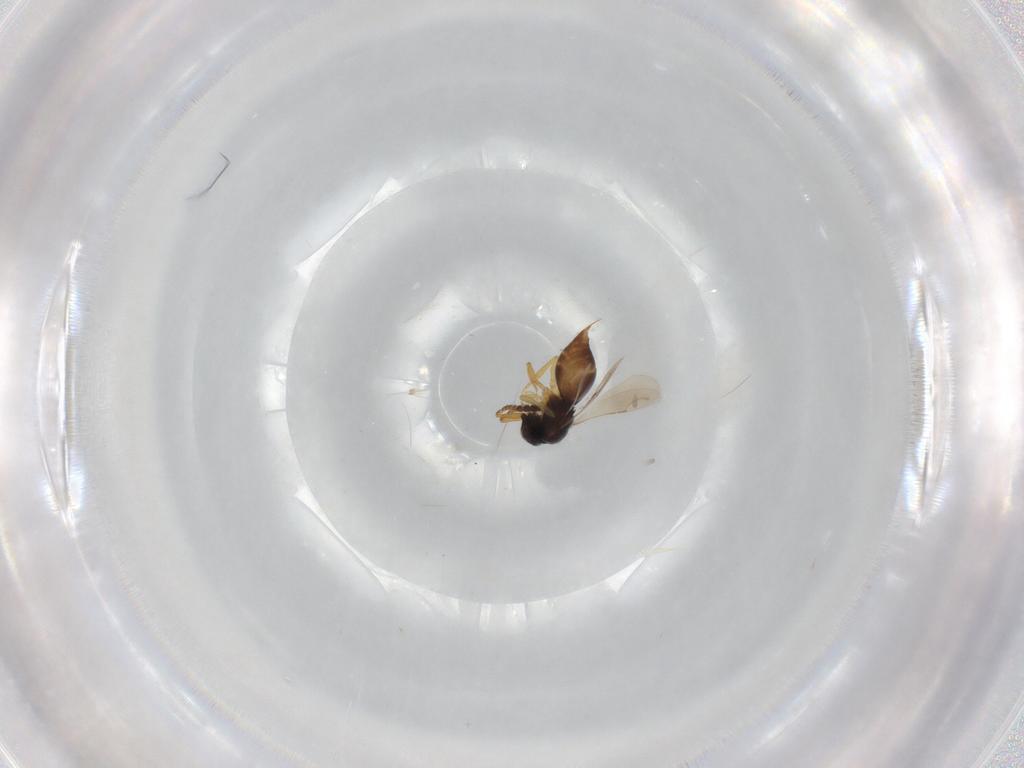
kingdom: Animalia
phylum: Arthropoda
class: Insecta
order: Hymenoptera
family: Ceraphronidae
